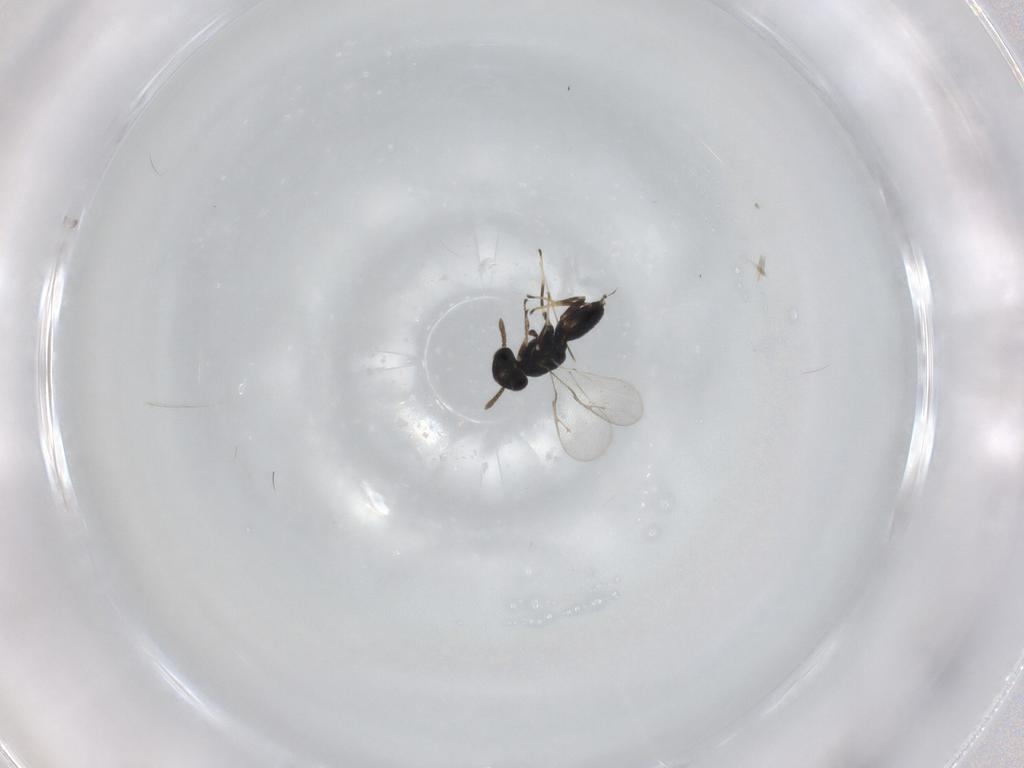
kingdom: Animalia
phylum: Arthropoda
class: Insecta
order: Hymenoptera
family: Pteromalidae
